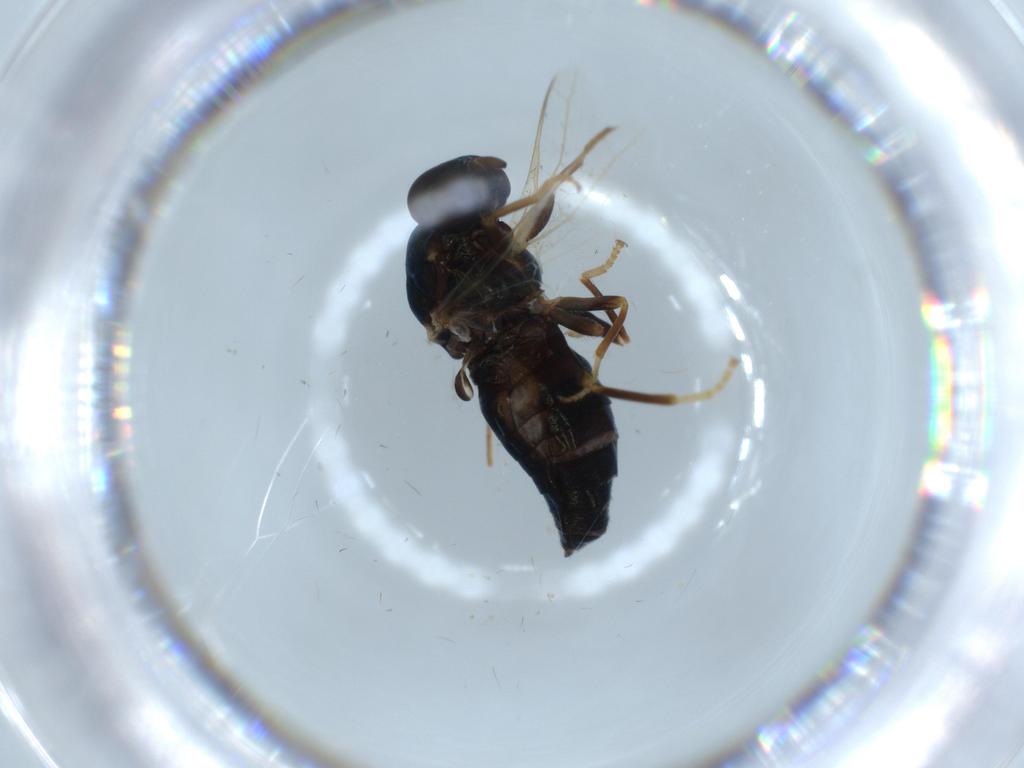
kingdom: Animalia
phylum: Arthropoda
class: Insecta
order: Diptera
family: Scenopinidae
